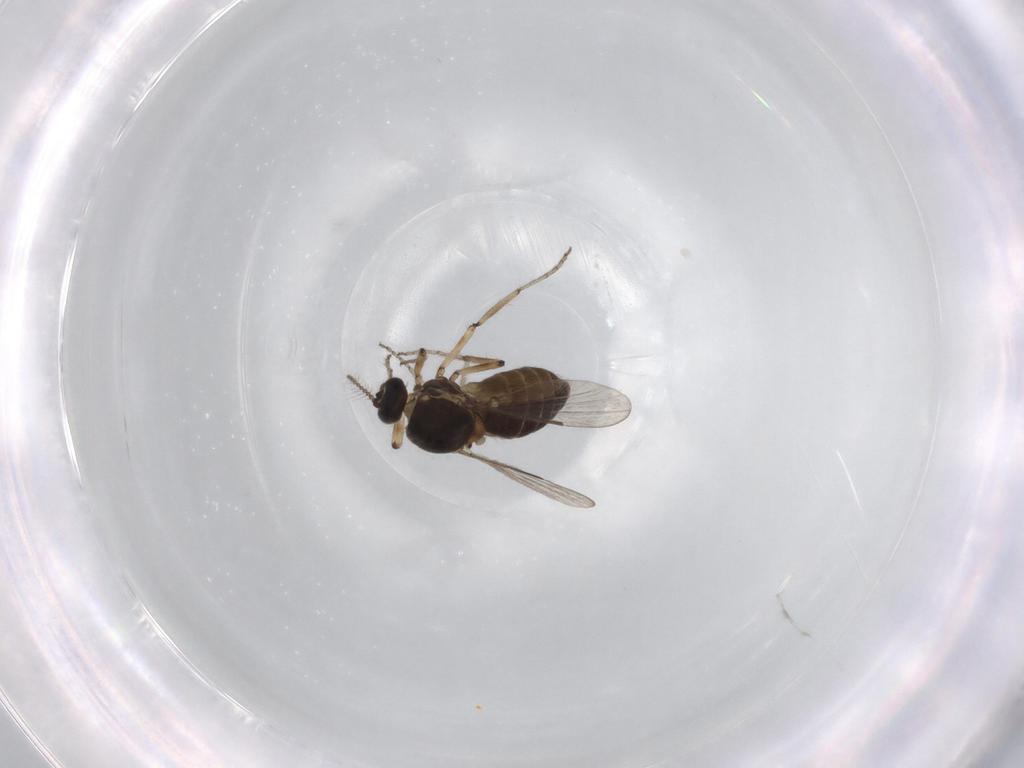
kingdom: Animalia
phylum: Arthropoda
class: Insecta
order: Diptera
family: Ceratopogonidae
